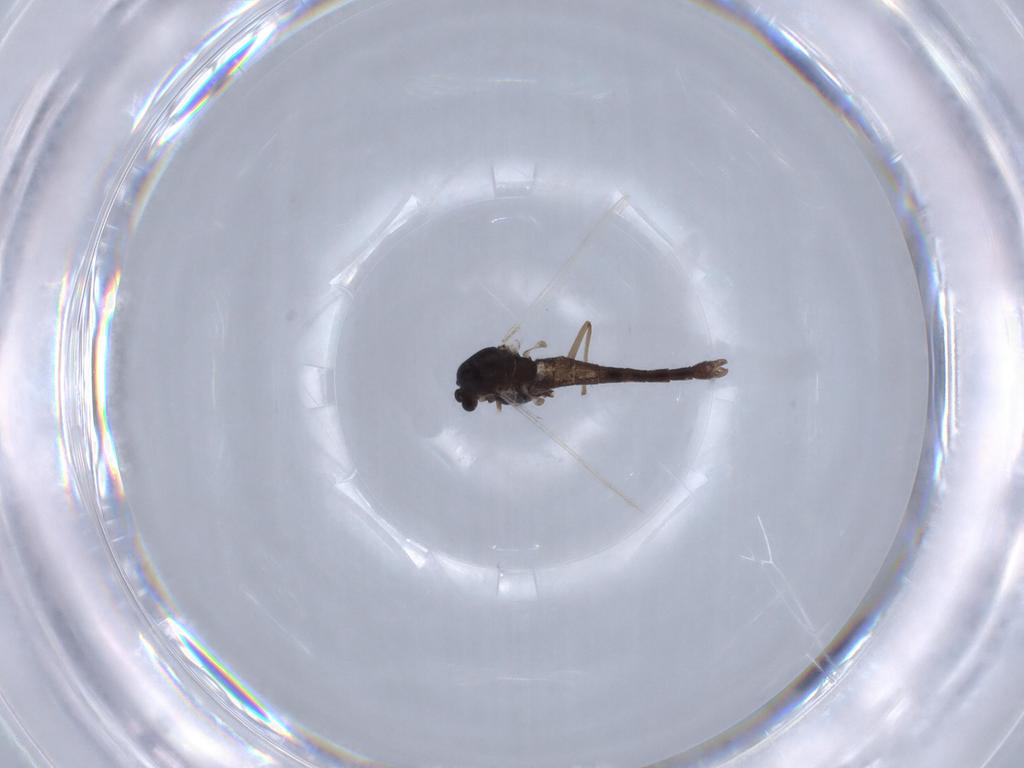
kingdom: Animalia
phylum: Arthropoda
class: Insecta
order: Diptera
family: Chironomidae
